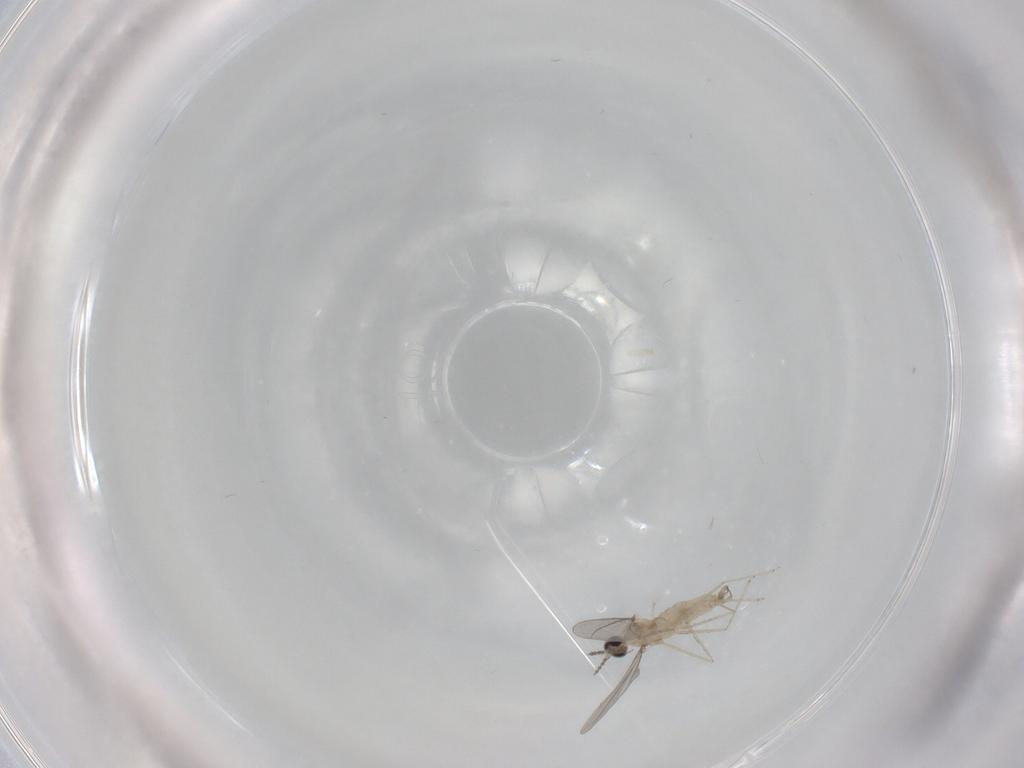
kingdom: Animalia
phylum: Arthropoda
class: Insecta
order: Diptera
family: Cecidomyiidae
